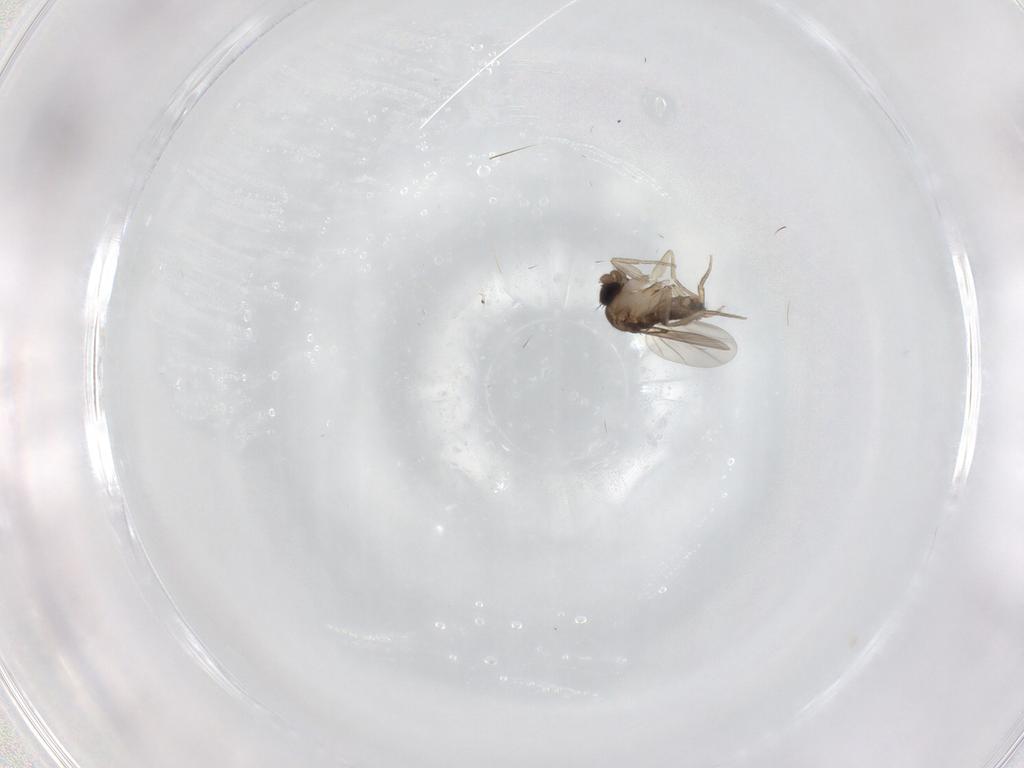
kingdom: Animalia
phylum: Arthropoda
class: Insecta
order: Diptera
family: Phoridae
